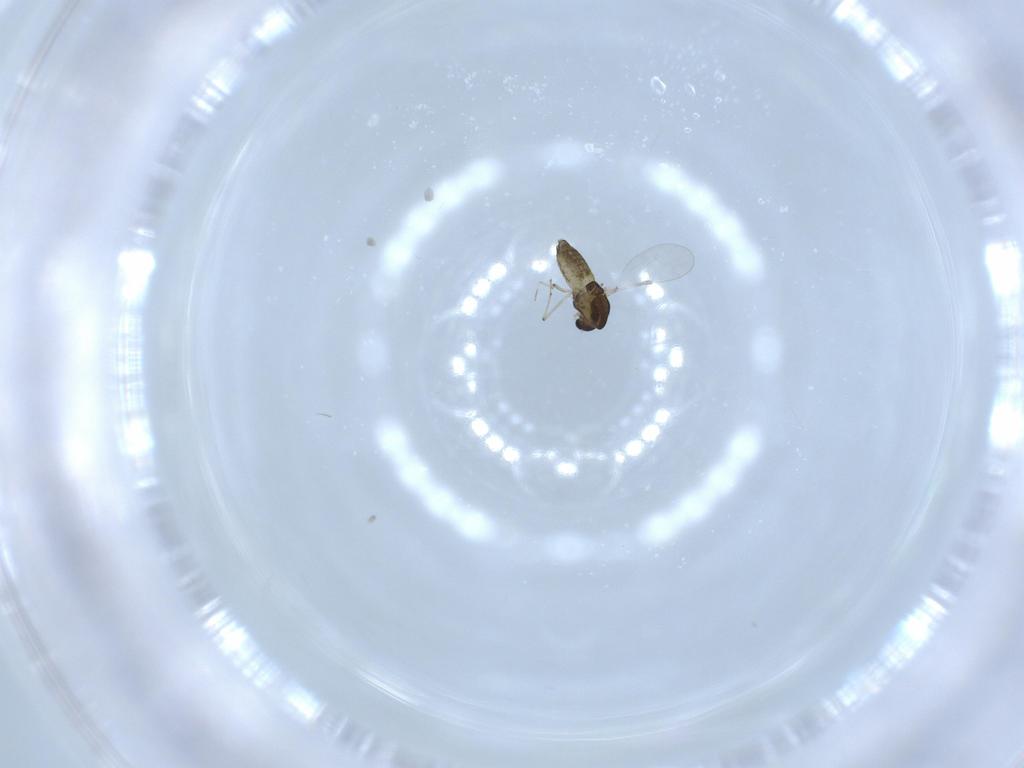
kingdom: Animalia
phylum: Arthropoda
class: Insecta
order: Diptera
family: Chironomidae
